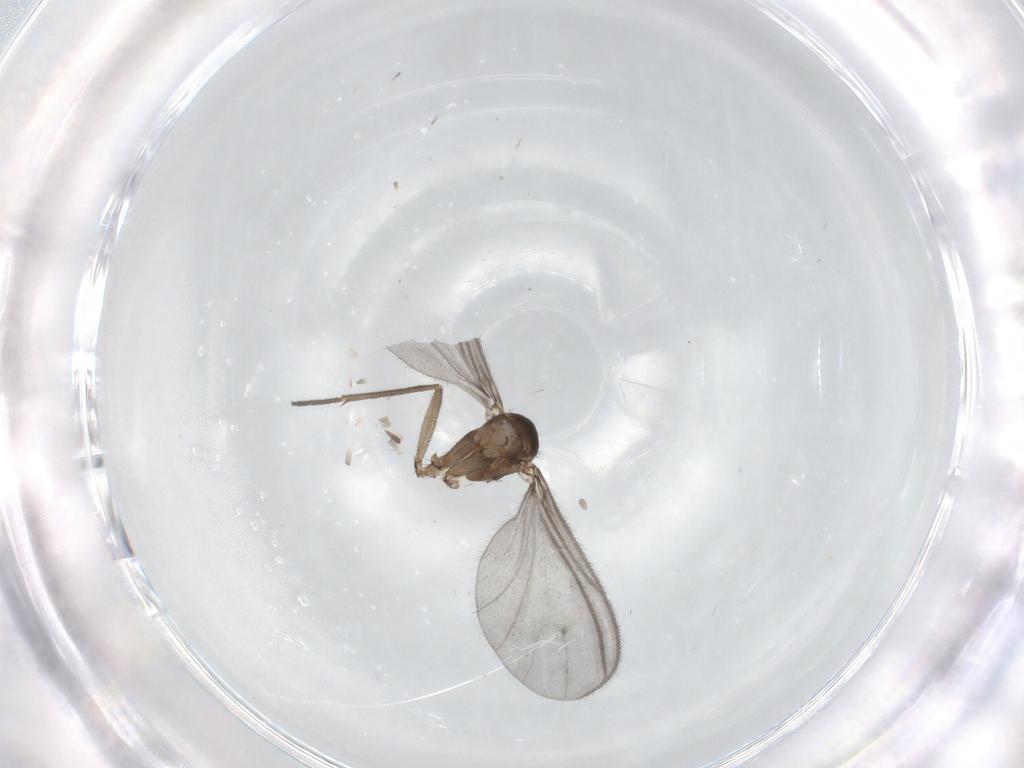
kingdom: Animalia
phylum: Arthropoda
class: Insecta
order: Diptera
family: Sciaridae
